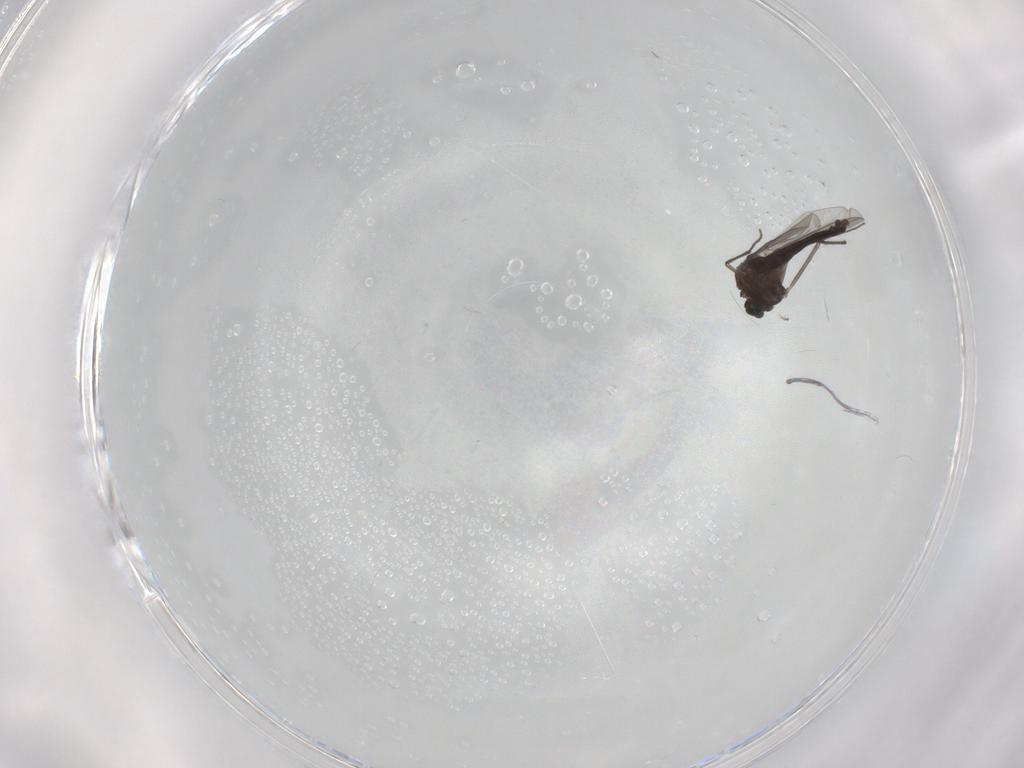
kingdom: Animalia
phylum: Arthropoda
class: Insecta
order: Diptera
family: Chironomidae
